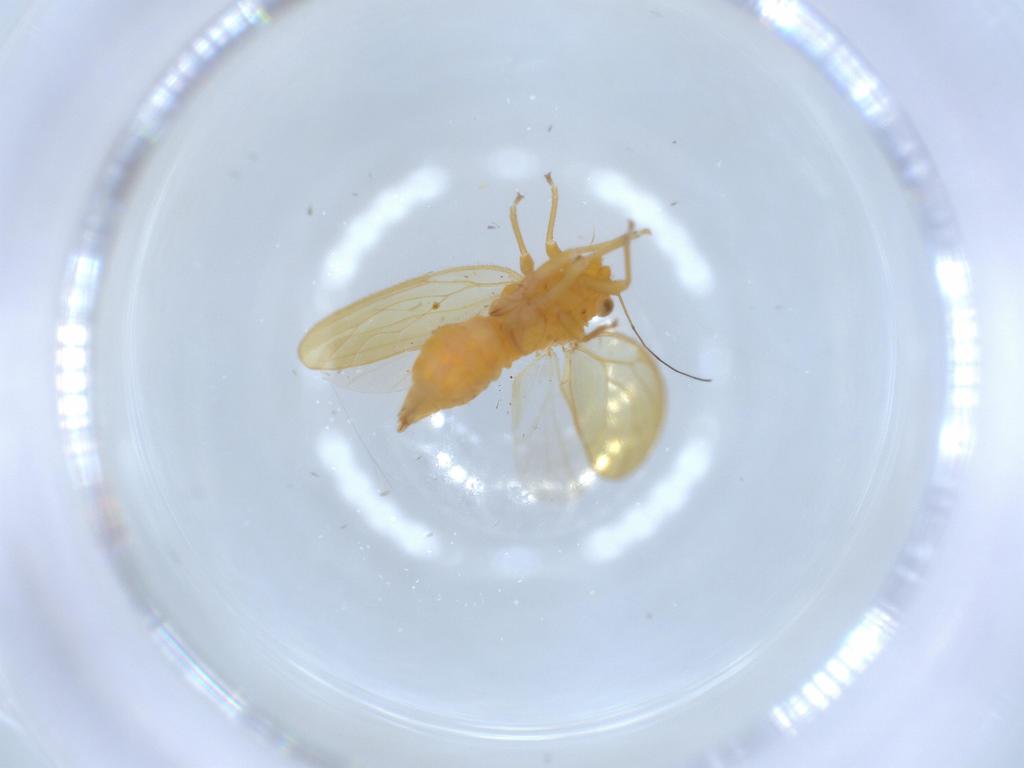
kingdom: Animalia
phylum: Arthropoda
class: Insecta
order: Hemiptera
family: Psyllidae
